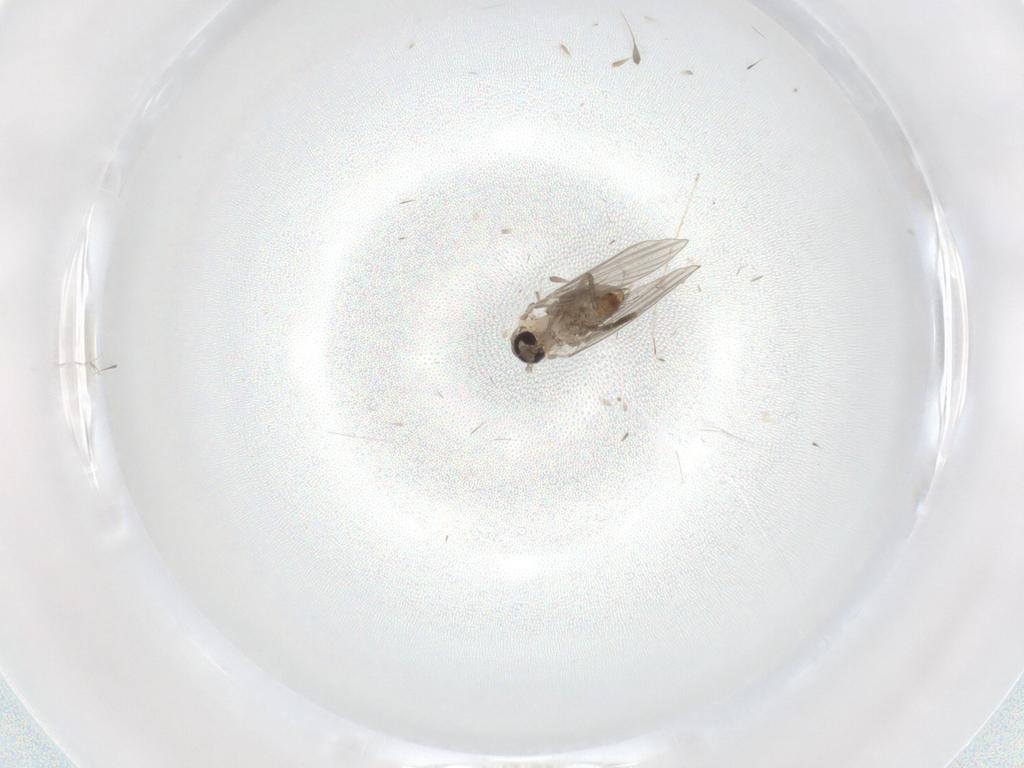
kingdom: Animalia
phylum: Arthropoda
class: Insecta
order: Diptera
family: Psychodidae
